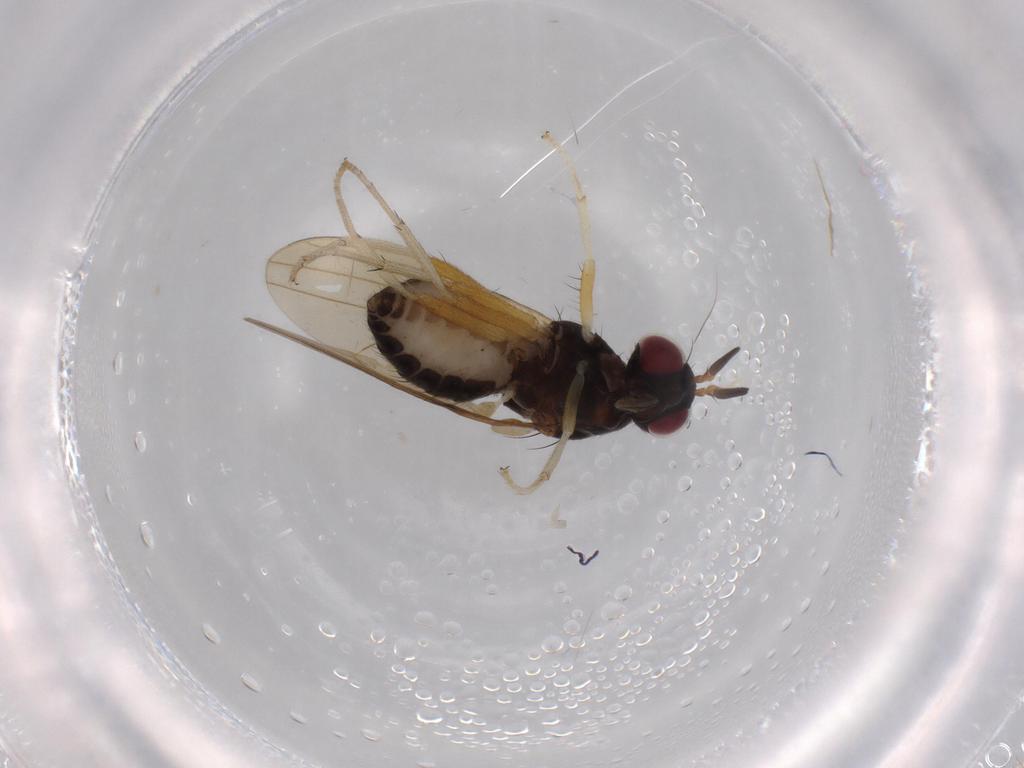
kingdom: Animalia
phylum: Arthropoda
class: Insecta
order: Diptera
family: Lauxaniidae
